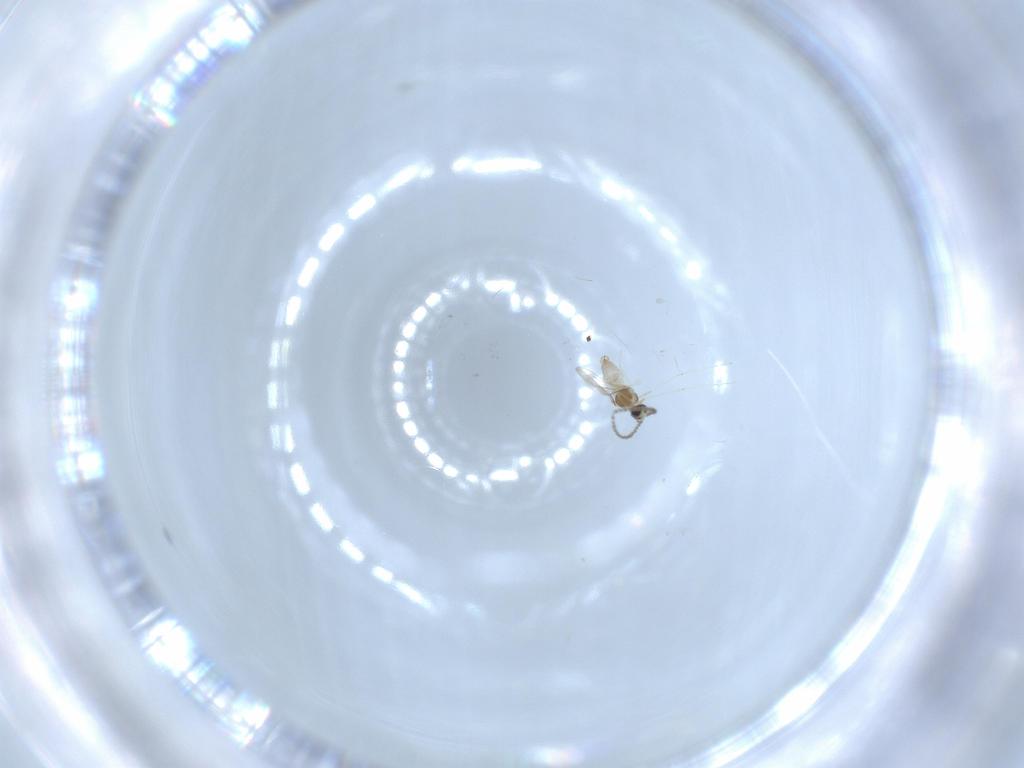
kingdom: Animalia
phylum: Arthropoda
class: Insecta
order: Diptera
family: Cecidomyiidae
